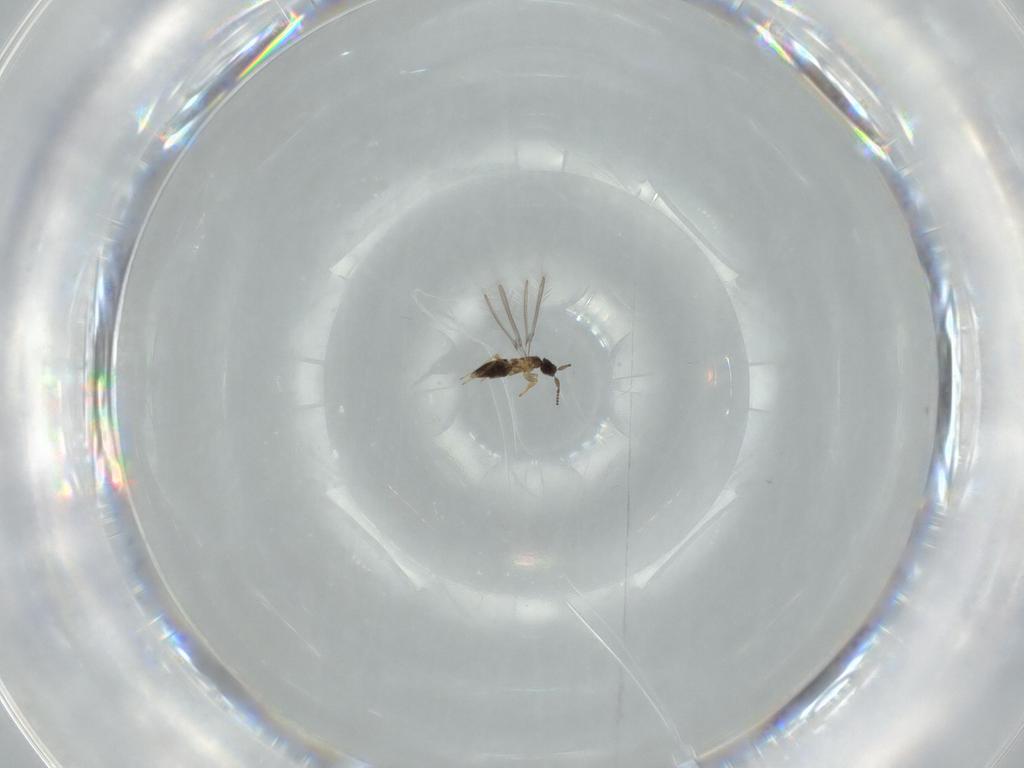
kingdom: Animalia
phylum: Arthropoda
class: Insecta
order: Hymenoptera
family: Mymaridae
